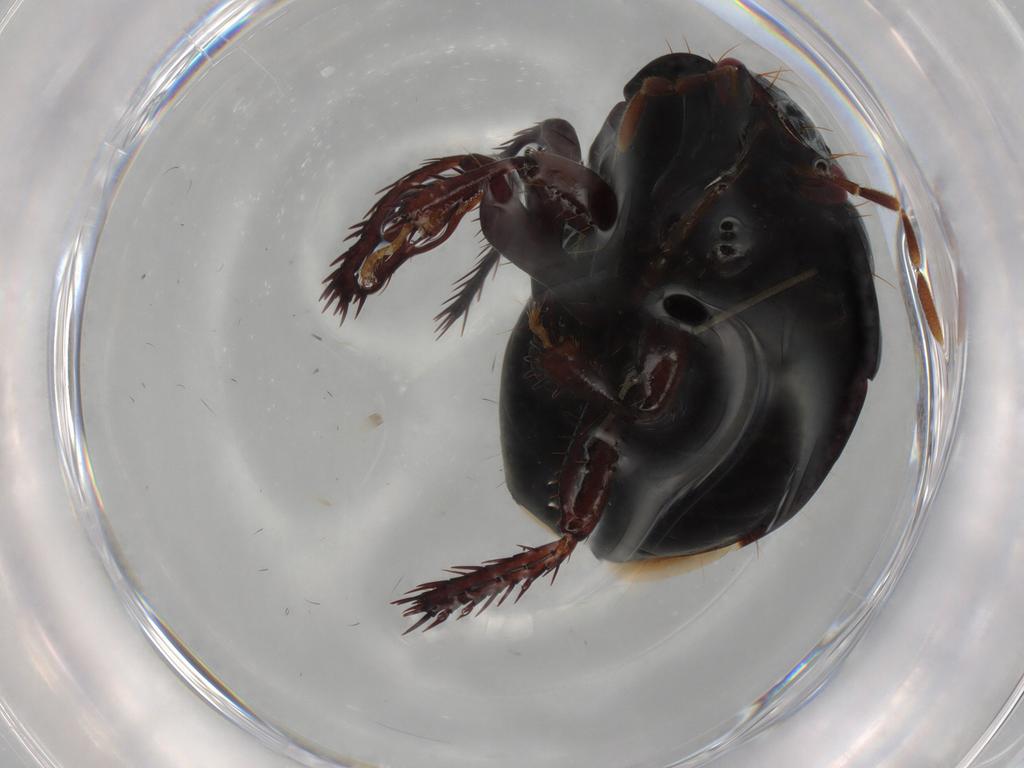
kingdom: Animalia
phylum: Arthropoda
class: Insecta
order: Hemiptera
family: Cydnidae
